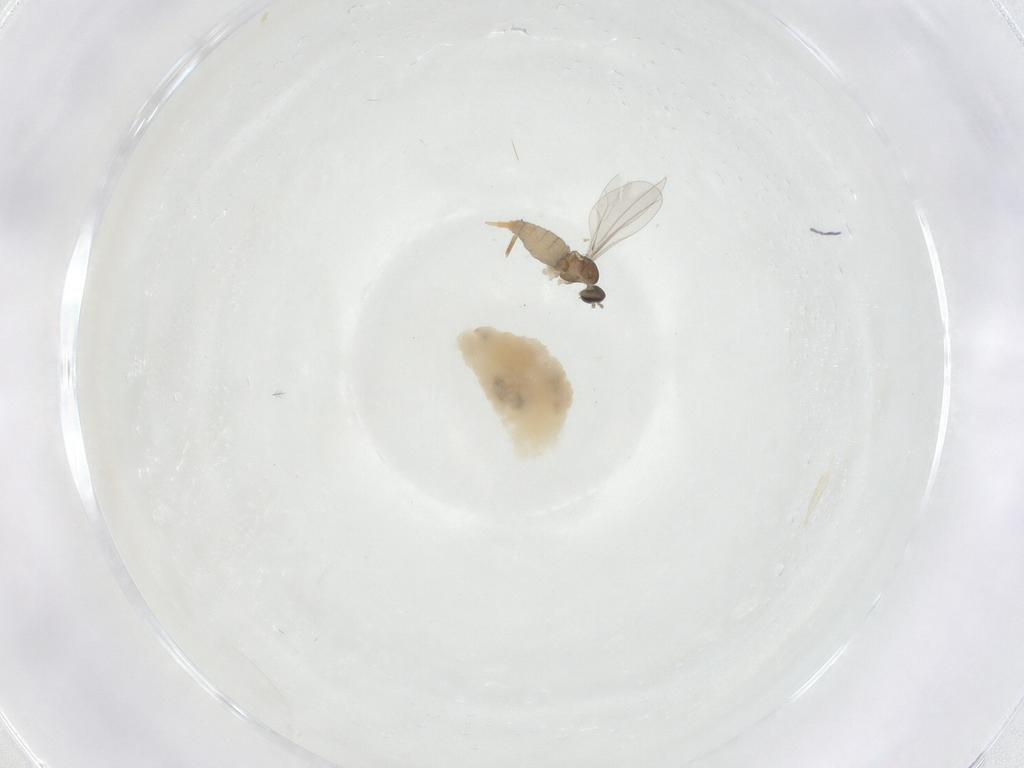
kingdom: Animalia
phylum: Arthropoda
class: Insecta
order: Diptera
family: Cecidomyiidae
